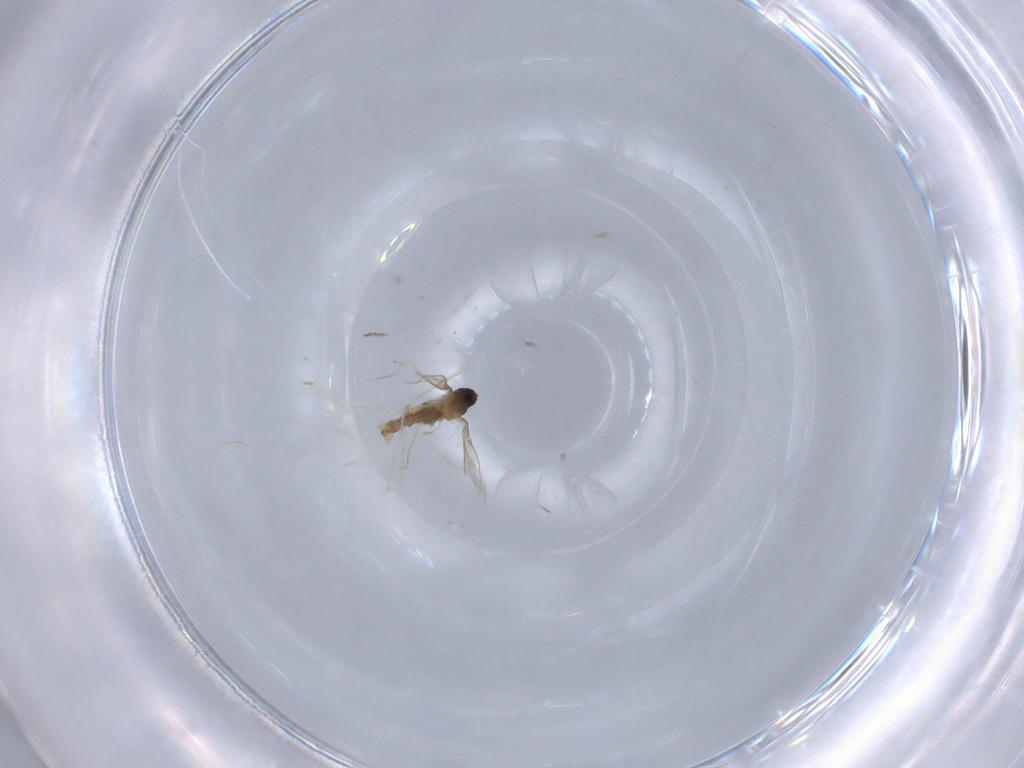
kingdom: Animalia
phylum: Arthropoda
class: Insecta
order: Diptera
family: Cecidomyiidae
